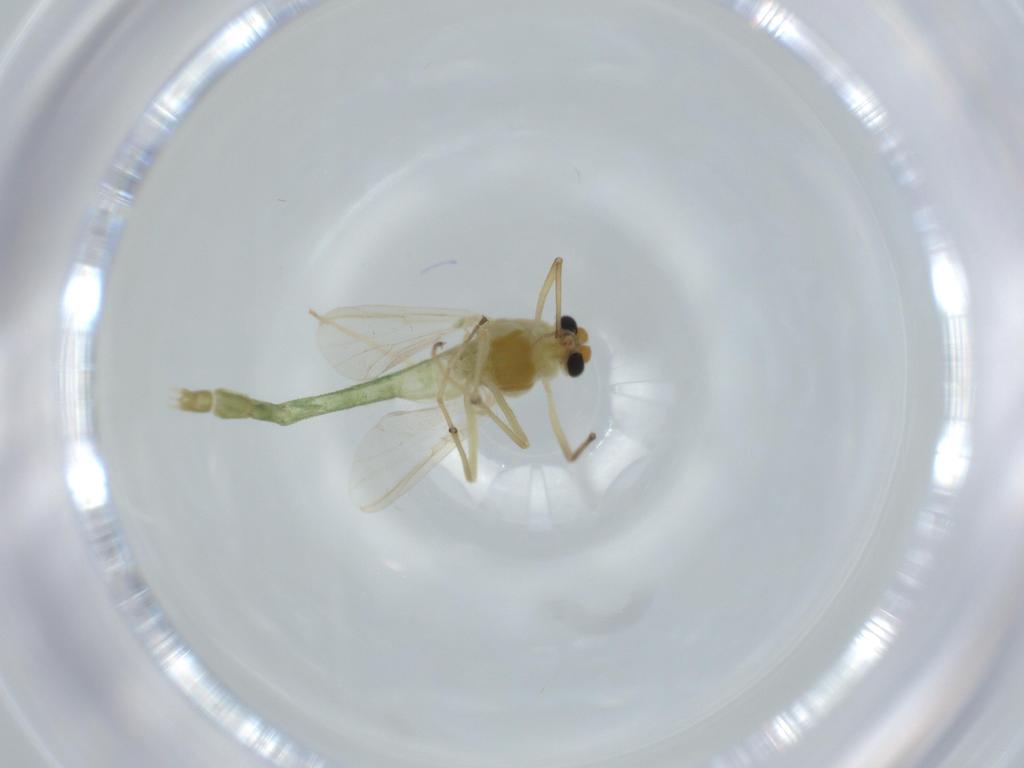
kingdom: Animalia
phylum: Arthropoda
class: Insecta
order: Diptera
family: Chironomidae
